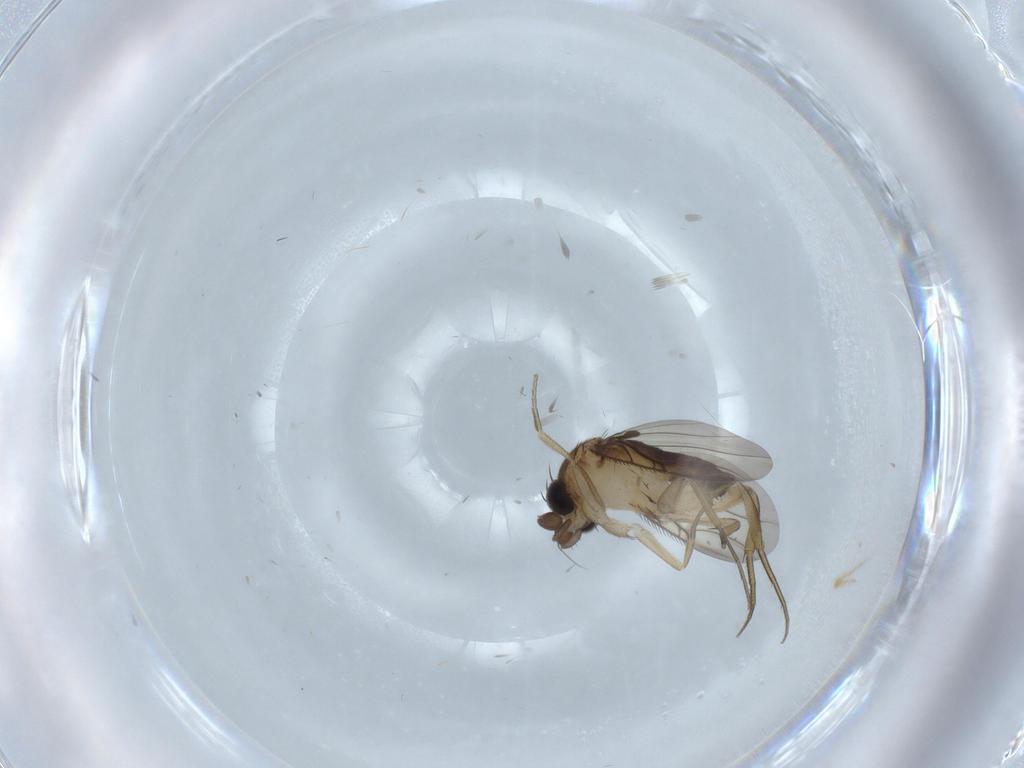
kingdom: Animalia
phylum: Arthropoda
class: Insecta
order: Diptera
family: Phoridae
